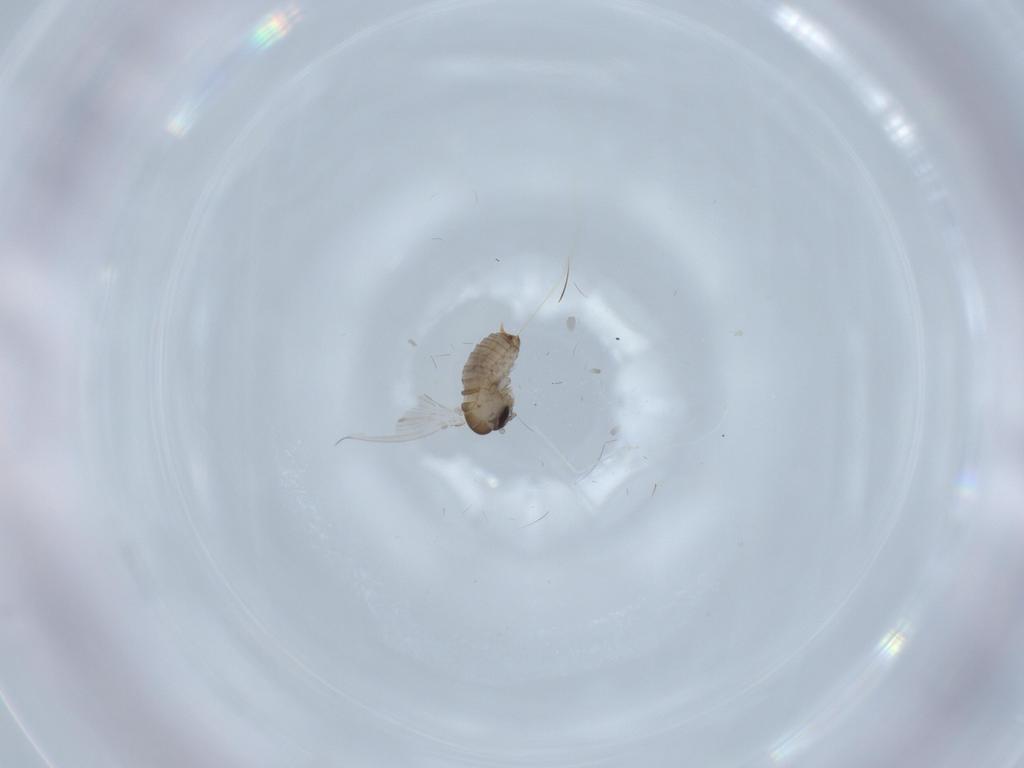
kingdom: Animalia
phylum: Arthropoda
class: Insecta
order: Diptera
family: Psychodidae
